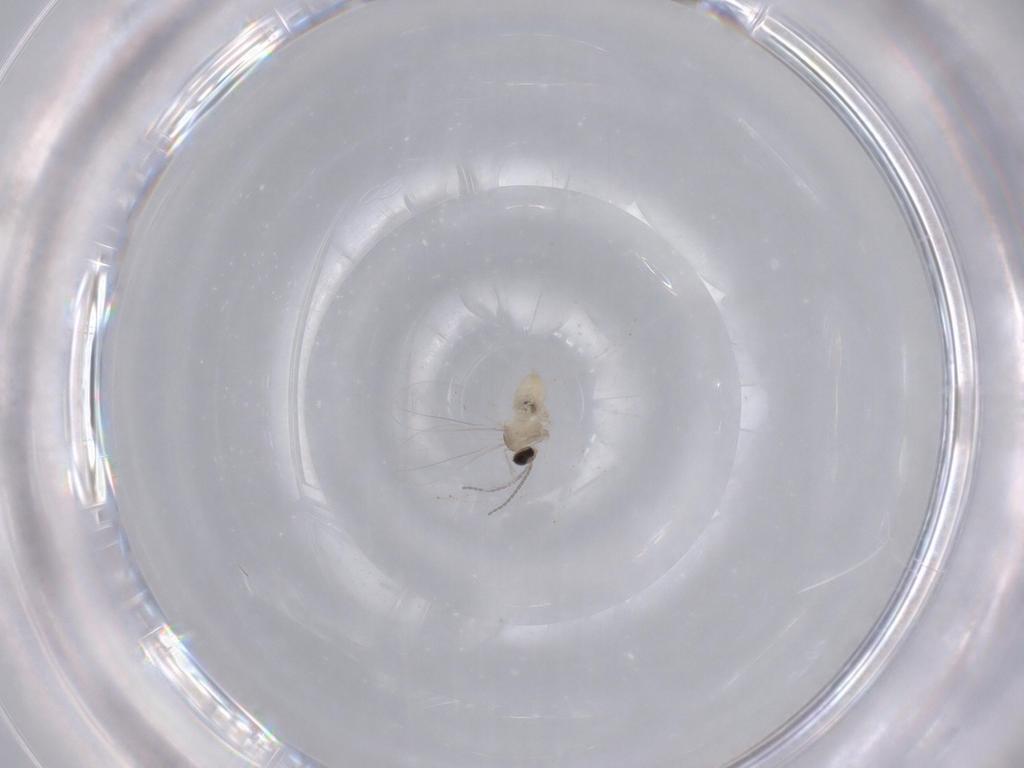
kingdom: Animalia
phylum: Arthropoda
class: Insecta
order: Diptera
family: Cecidomyiidae
